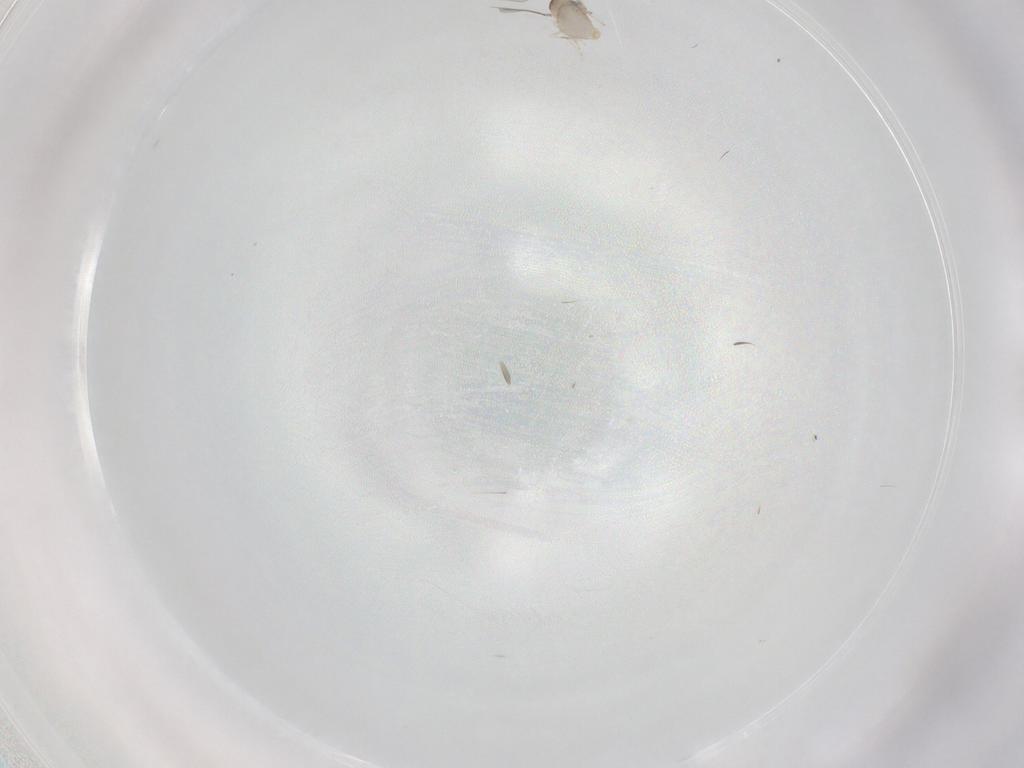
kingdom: Animalia
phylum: Arthropoda
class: Insecta
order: Diptera
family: Cecidomyiidae
